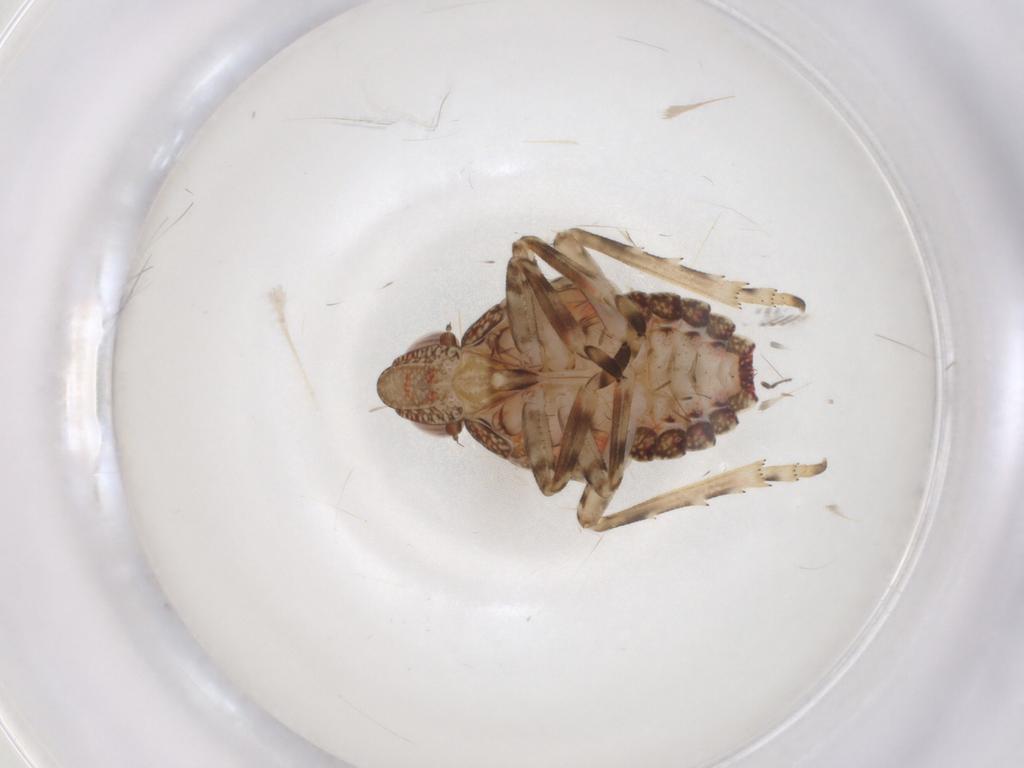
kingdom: Animalia
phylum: Arthropoda
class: Insecta
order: Hemiptera
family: Tropiduchidae
